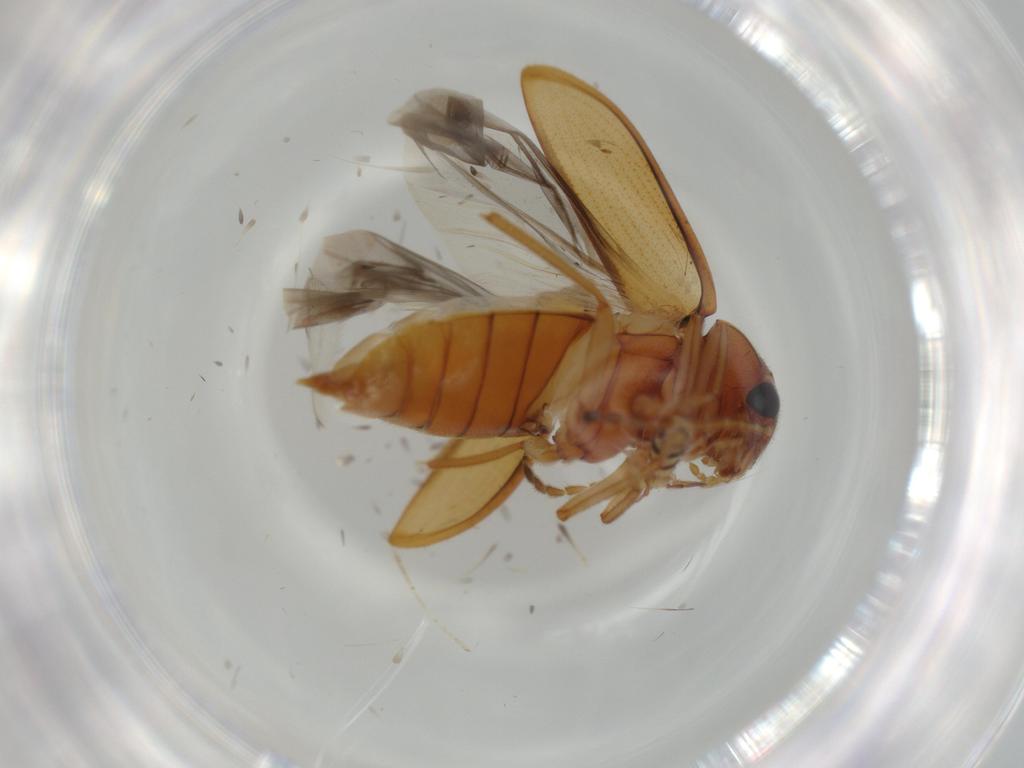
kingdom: Animalia
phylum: Arthropoda
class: Insecta
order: Coleoptera
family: Ptilodactylidae
